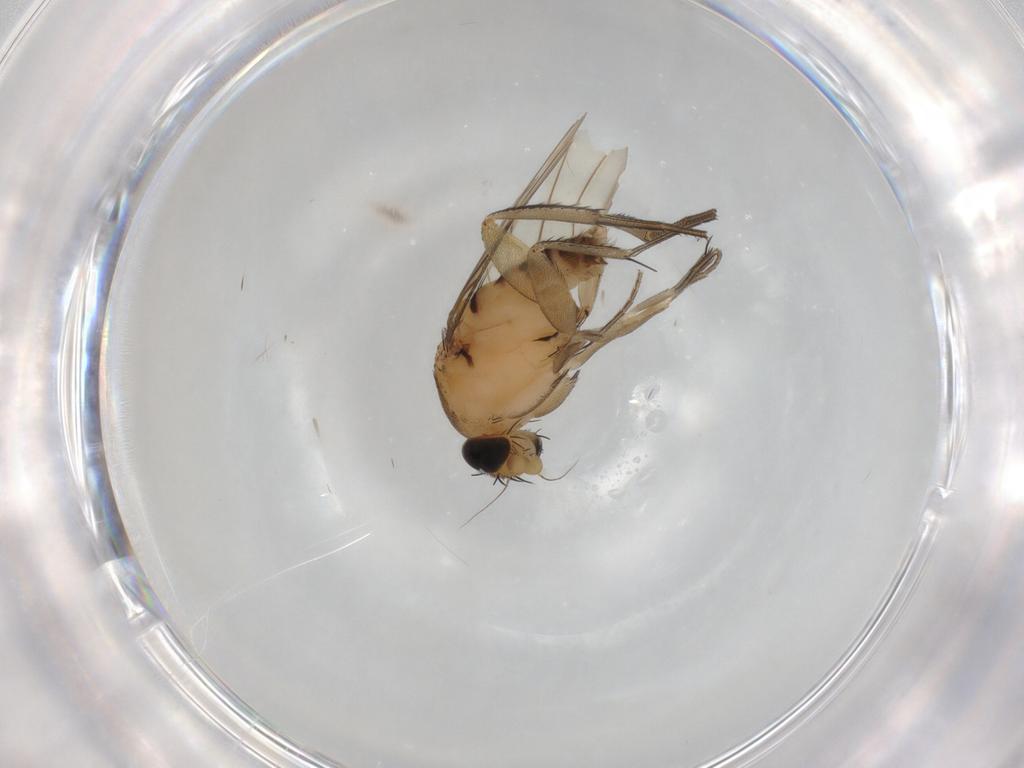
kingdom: Animalia
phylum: Arthropoda
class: Insecta
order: Diptera
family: Phoridae
